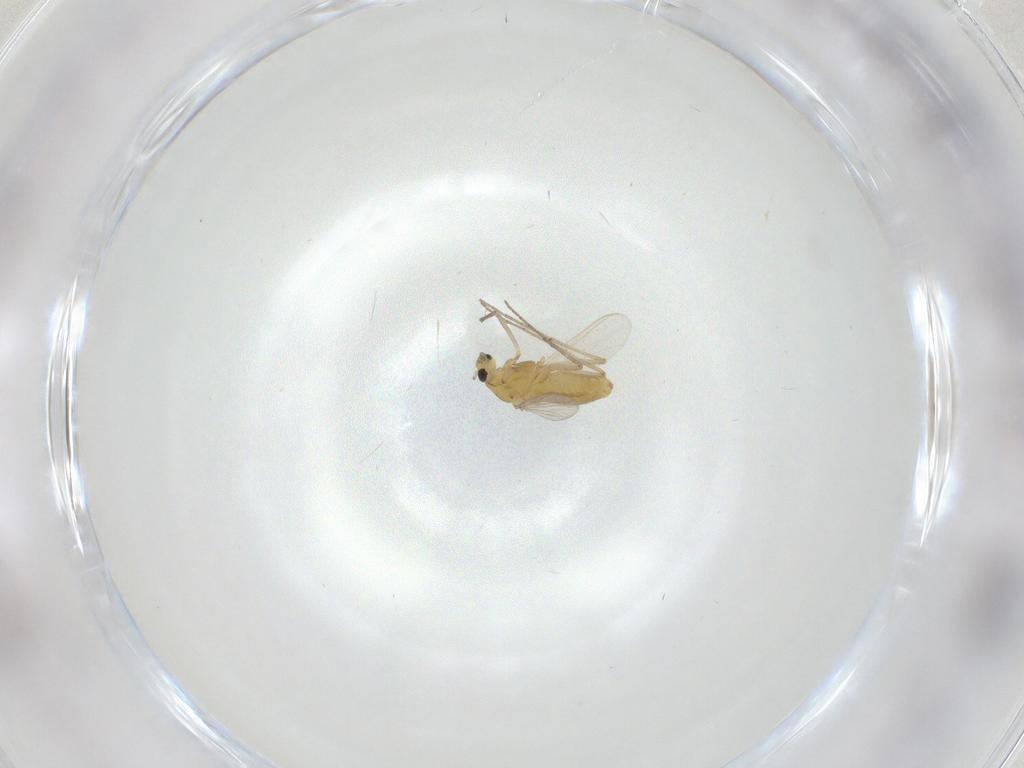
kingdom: Animalia
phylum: Arthropoda
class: Insecta
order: Diptera
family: Chironomidae
